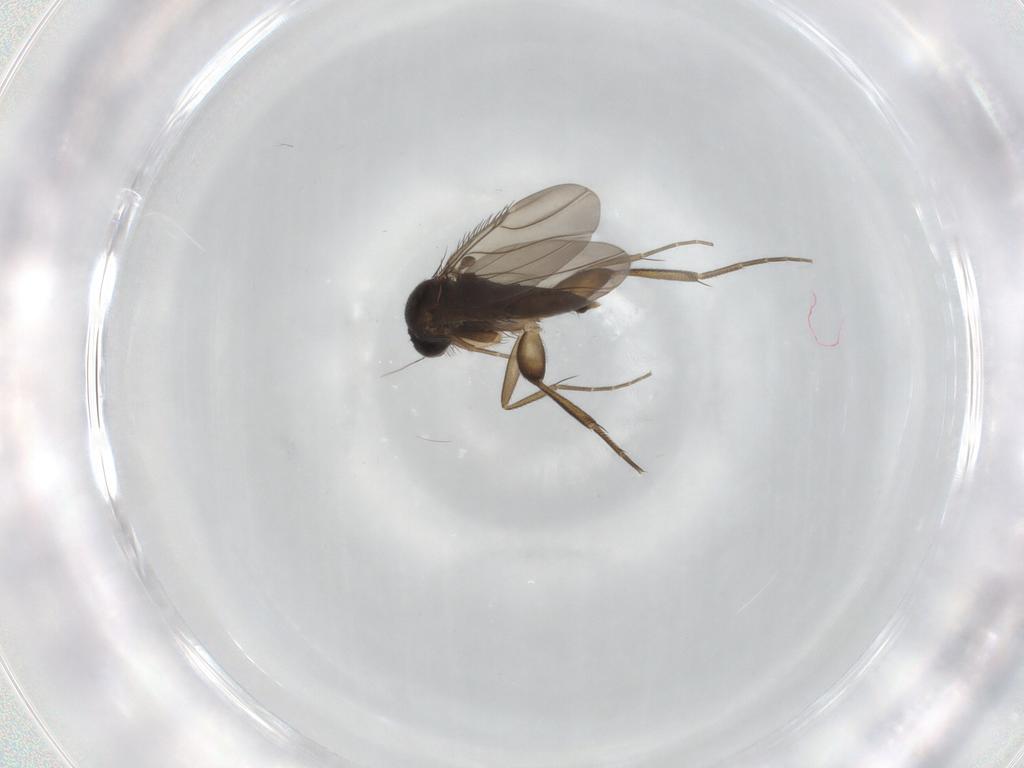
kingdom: Animalia
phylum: Arthropoda
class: Insecta
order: Diptera
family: Phoridae
